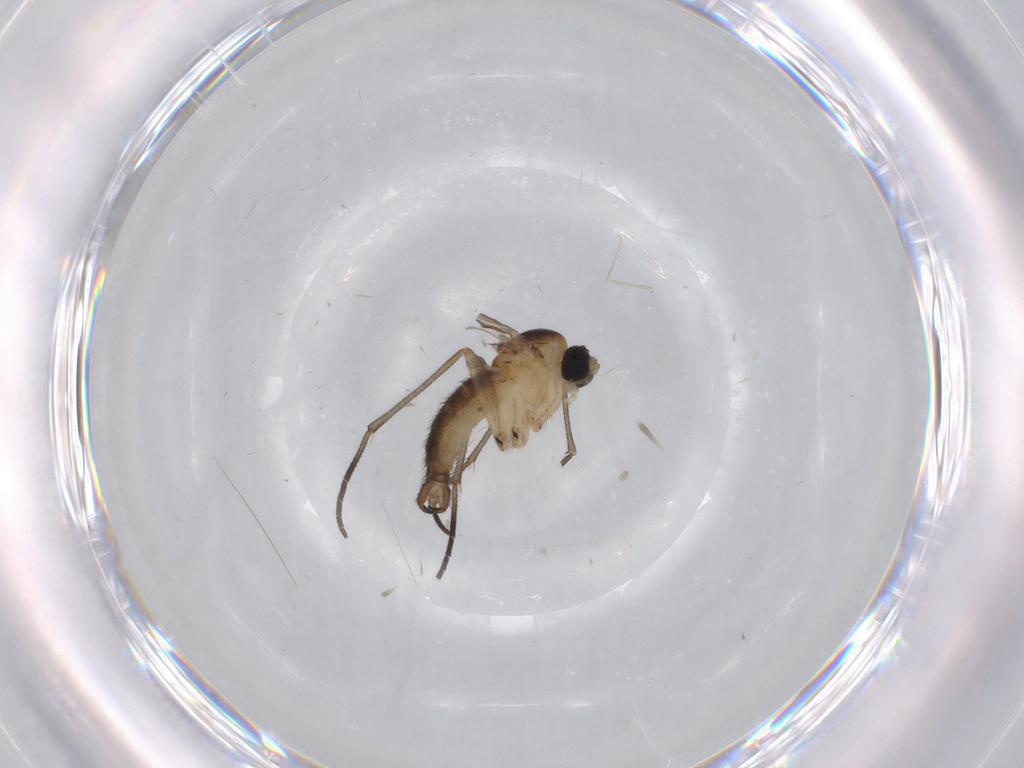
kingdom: Animalia
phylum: Arthropoda
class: Insecta
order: Diptera
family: Sciaridae
